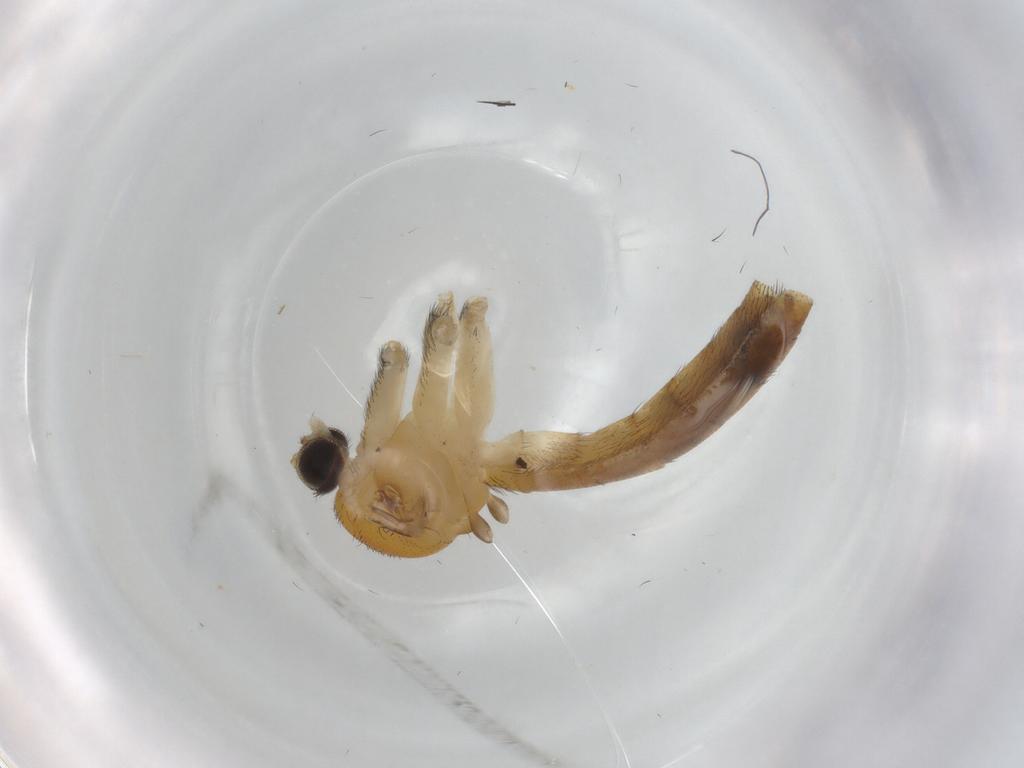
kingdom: Animalia
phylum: Arthropoda
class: Insecta
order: Diptera
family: Keroplatidae
